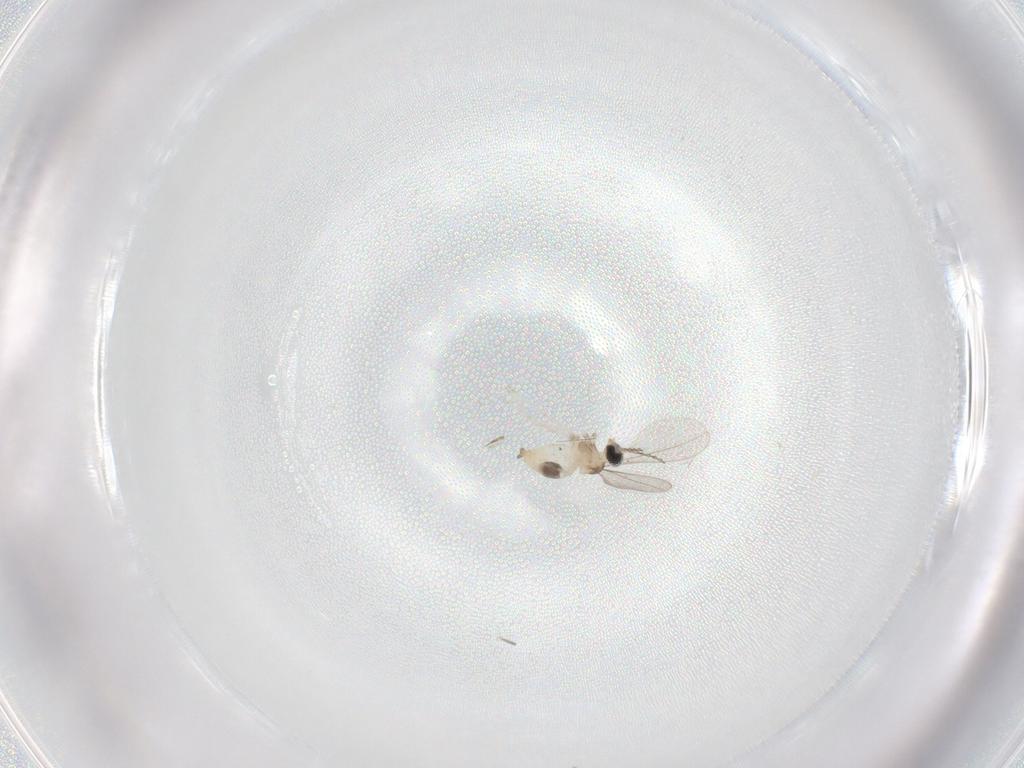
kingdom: Animalia
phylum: Arthropoda
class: Insecta
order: Diptera
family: Cecidomyiidae
